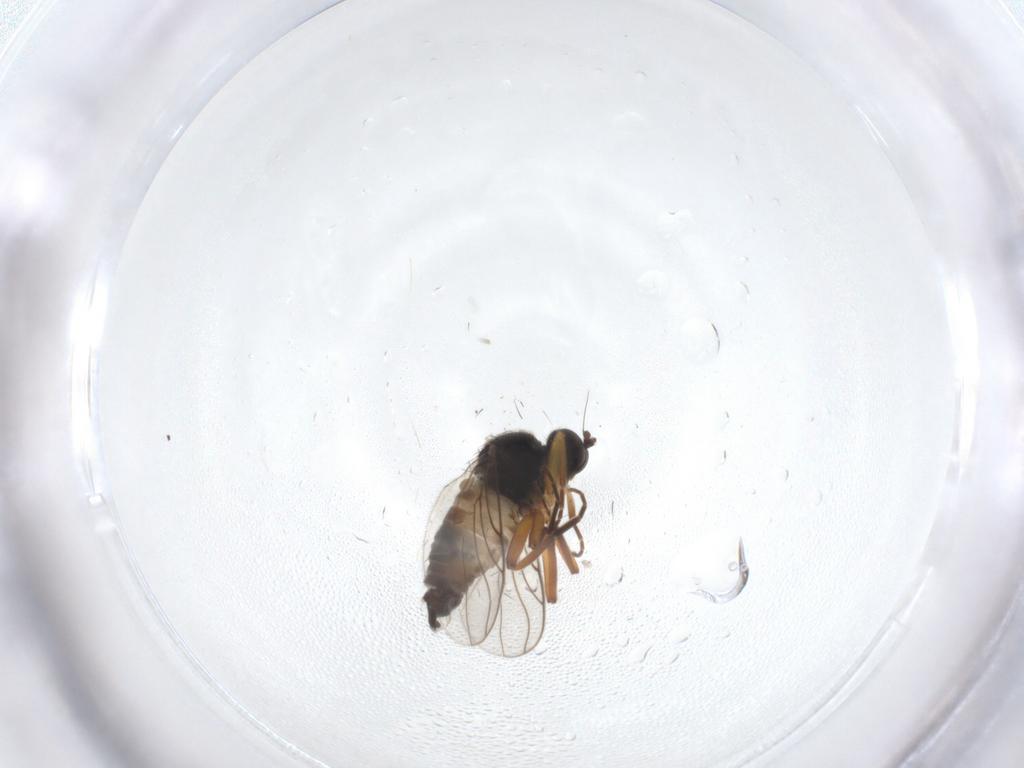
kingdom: Animalia
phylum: Arthropoda
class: Insecta
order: Diptera
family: Hybotidae
